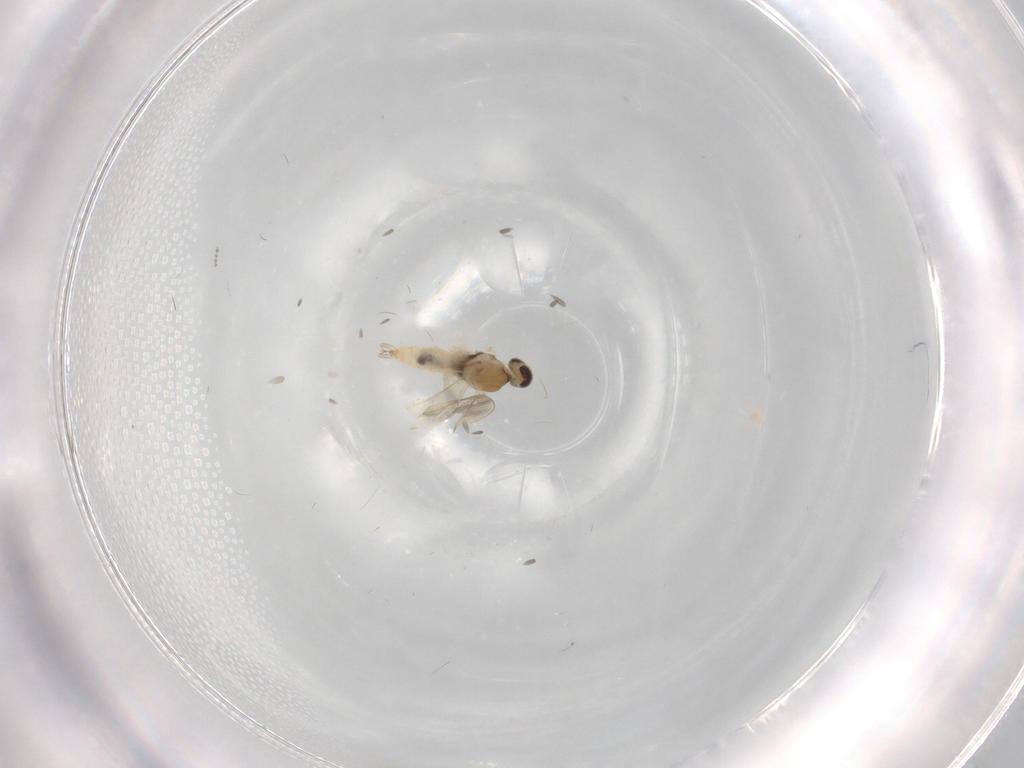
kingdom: Animalia
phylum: Arthropoda
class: Insecta
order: Diptera
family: Cecidomyiidae
